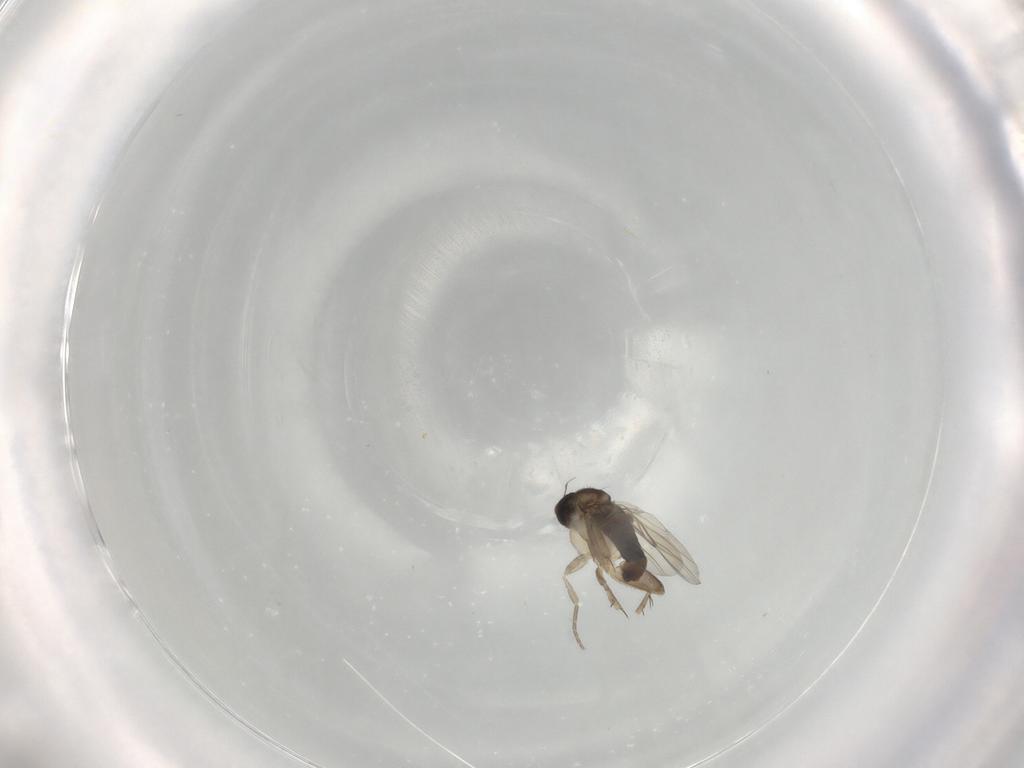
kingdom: Animalia
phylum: Arthropoda
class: Insecta
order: Diptera
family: Phoridae
